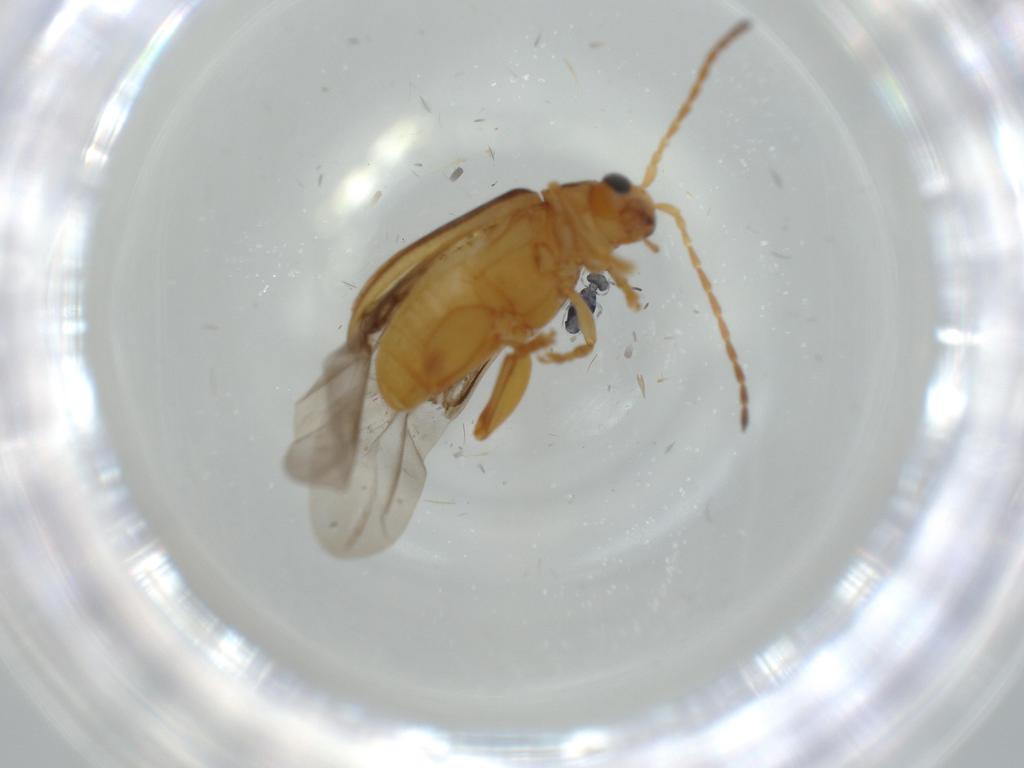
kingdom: Animalia
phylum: Arthropoda
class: Insecta
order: Coleoptera
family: Chrysomelidae
